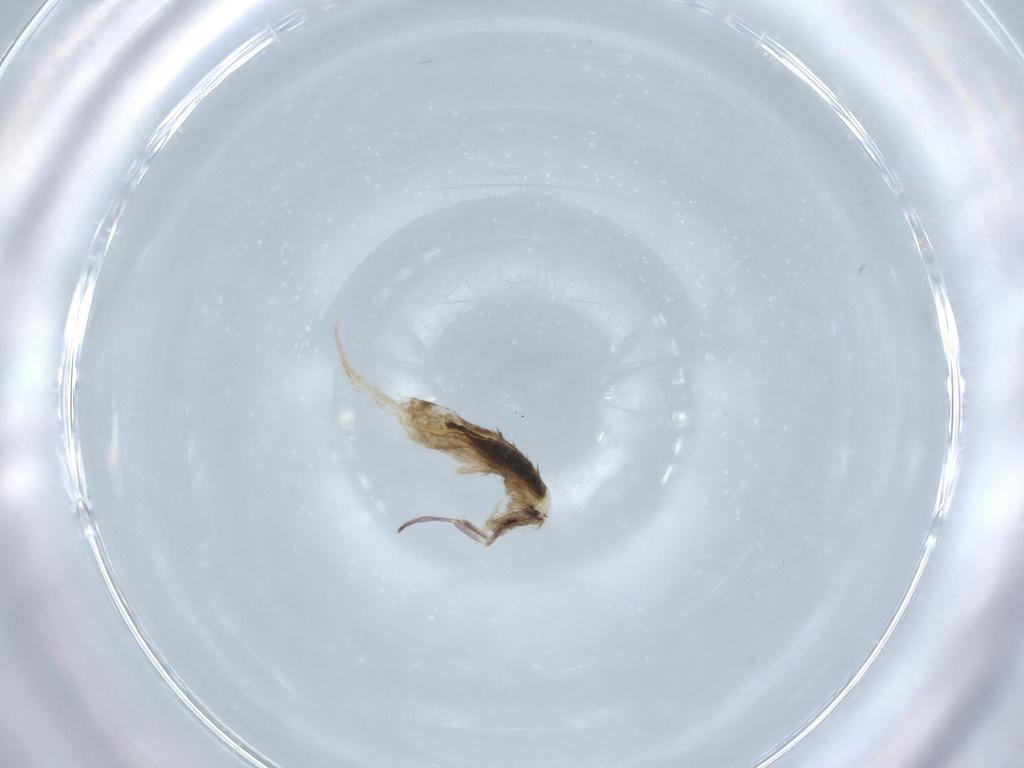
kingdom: Animalia
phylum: Arthropoda
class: Collembola
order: Entomobryomorpha
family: Entomobryidae
